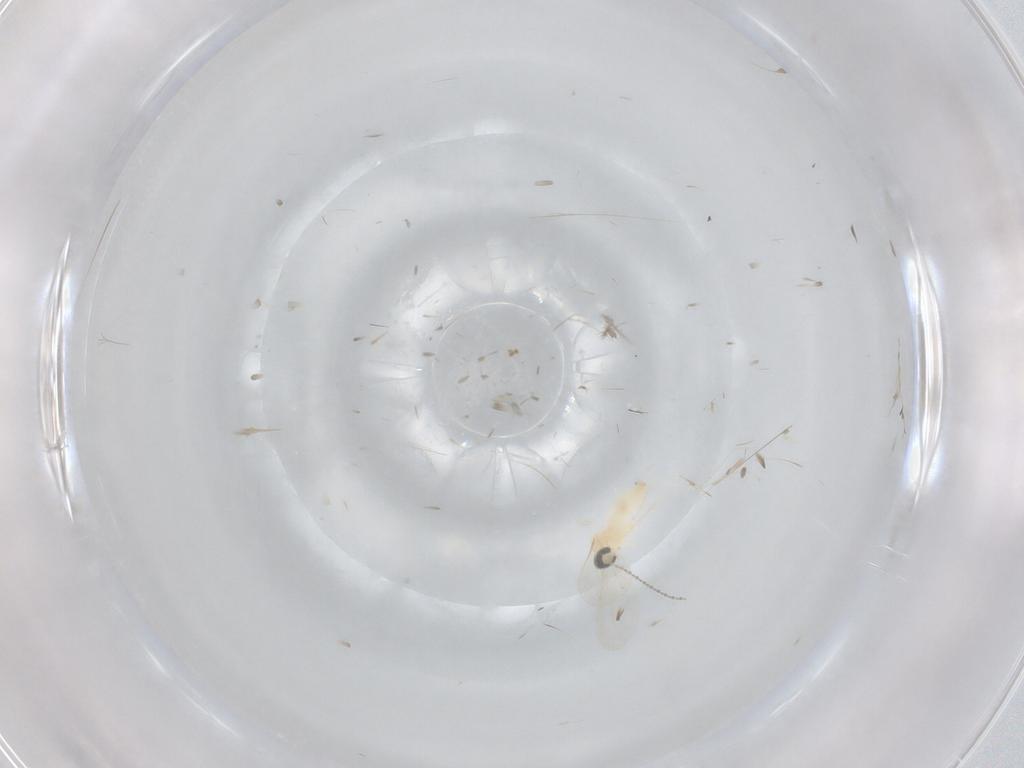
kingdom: Animalia
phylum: Arthropoda
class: Insecta
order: Diptera
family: Cecidomyiidae
